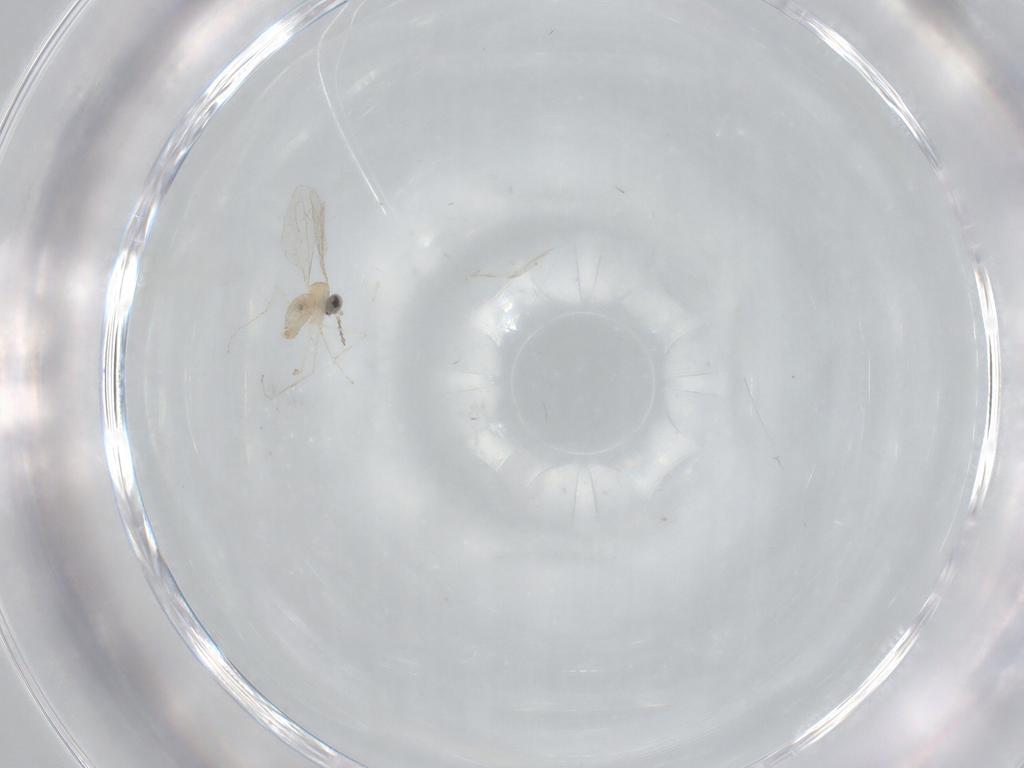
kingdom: Animalia
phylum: Arthropoda
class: Insecta
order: Diptera
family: Cecidomyiidae
